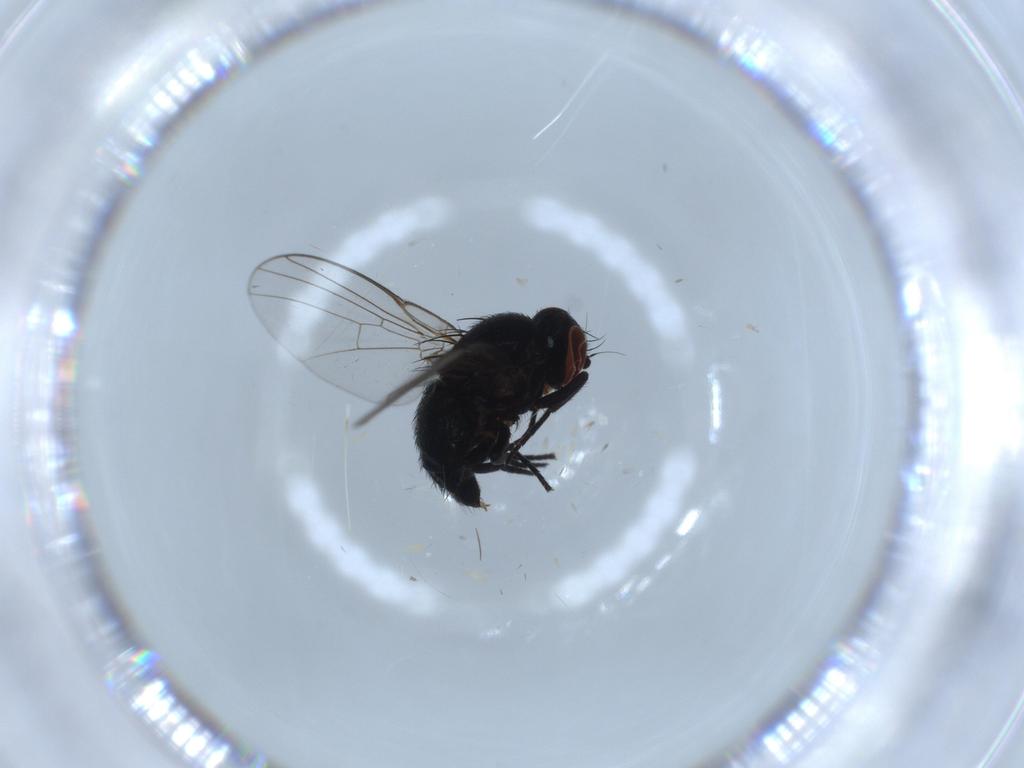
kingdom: Animalia
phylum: Arthropoda
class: Insecta
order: Diptera
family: Agromyzidae
